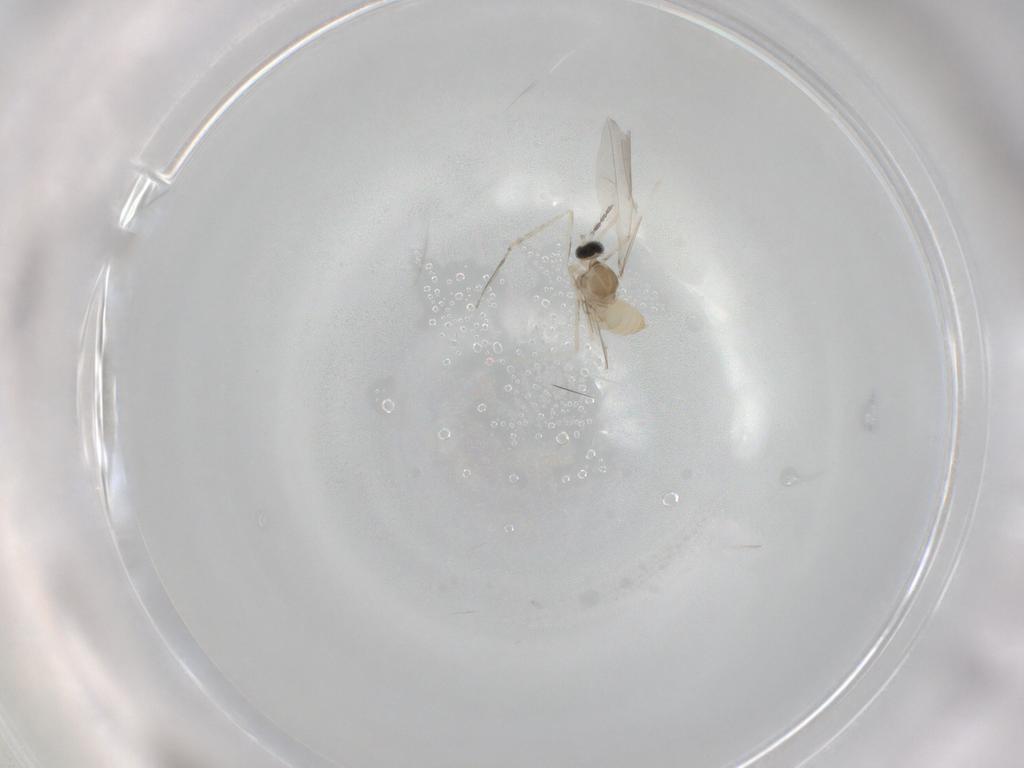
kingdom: Animalia
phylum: Arthropoda
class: Insecta
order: Diptera
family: Cecidomyiidae
